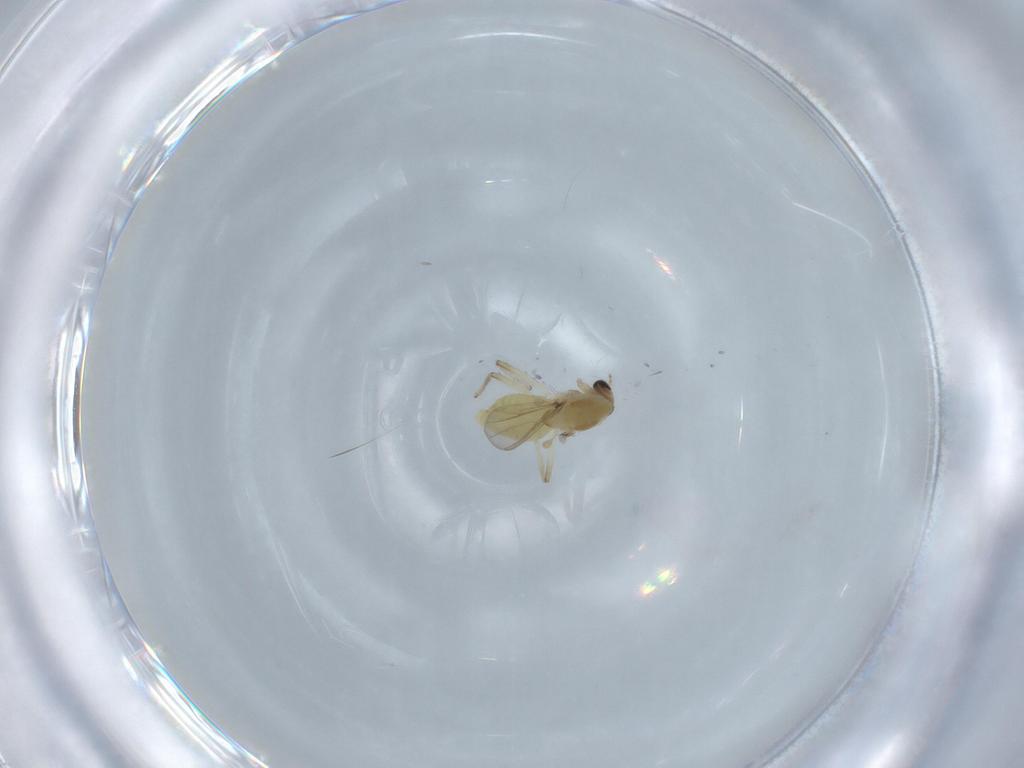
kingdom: Animalia
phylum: Arthropoda
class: Insecta
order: Diptera
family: Chironomidae
